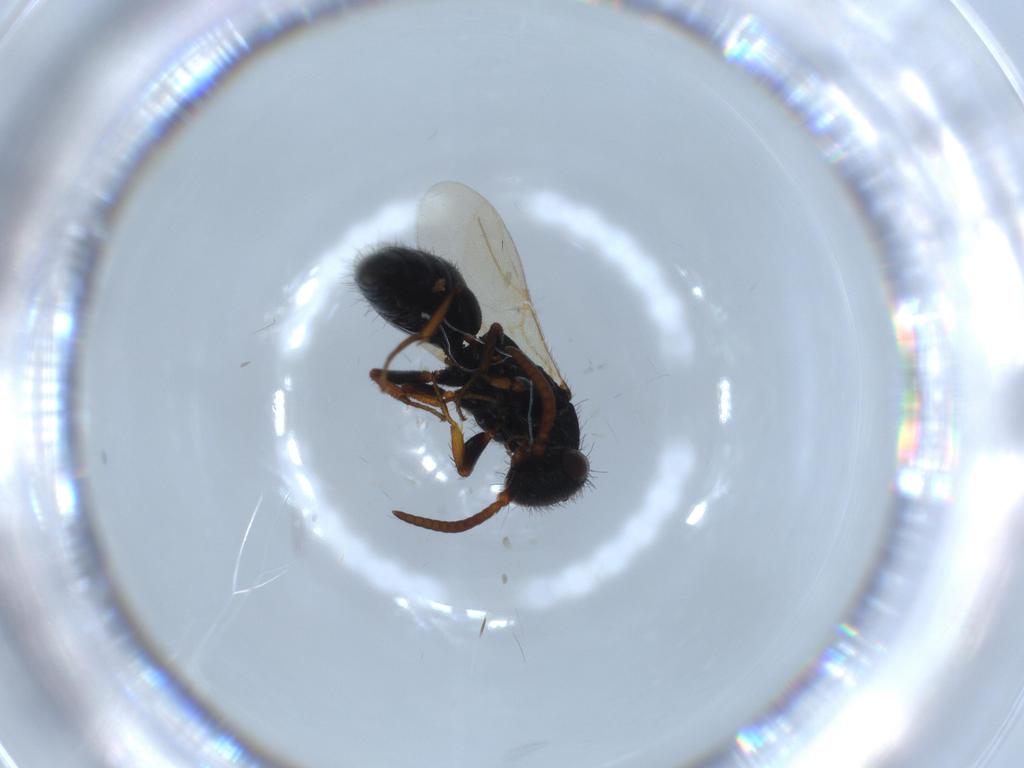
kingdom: Animalia
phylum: Arthropoda
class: Insecta
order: Hymenoptera
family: Bethylidae
